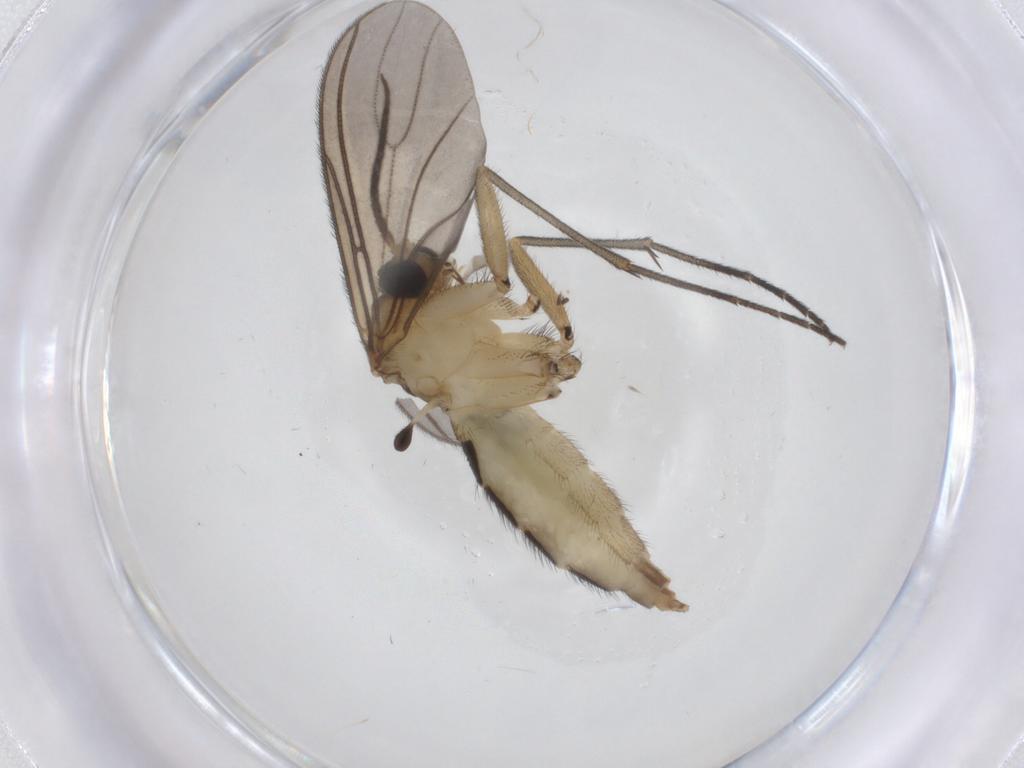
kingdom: Animalia
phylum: Arthropoda
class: Insecta
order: Diptera
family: Sciaridae
